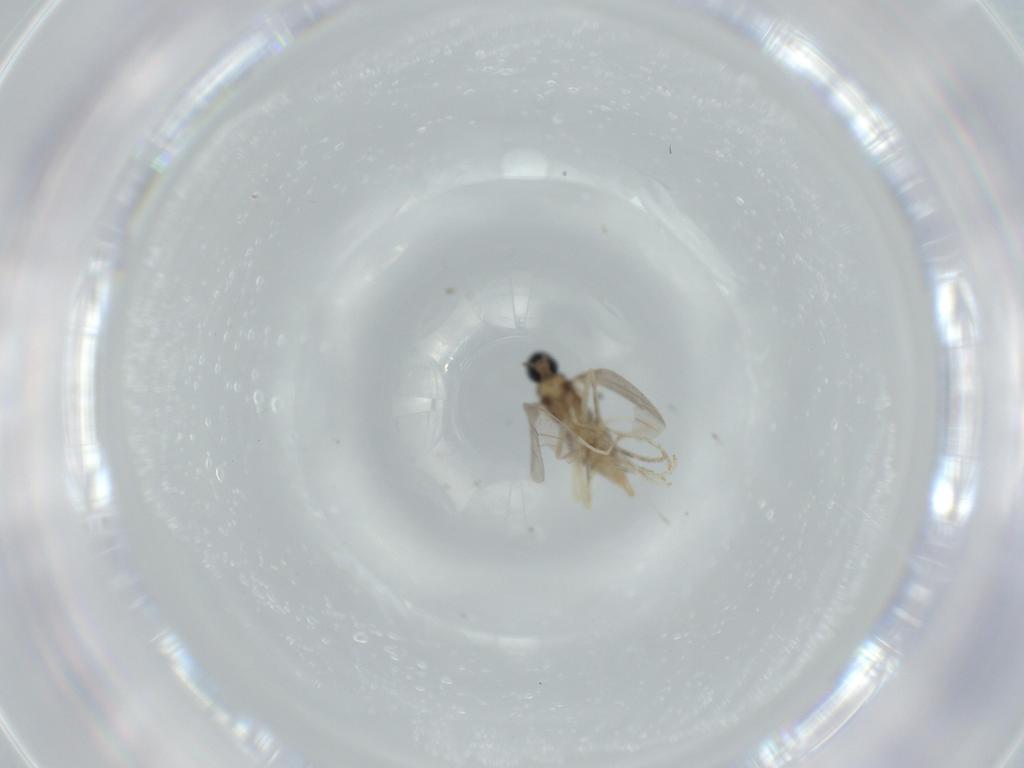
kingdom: Animalia
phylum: Arthropoda
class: Insecta
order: Diptera
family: Cecidomyiidae
